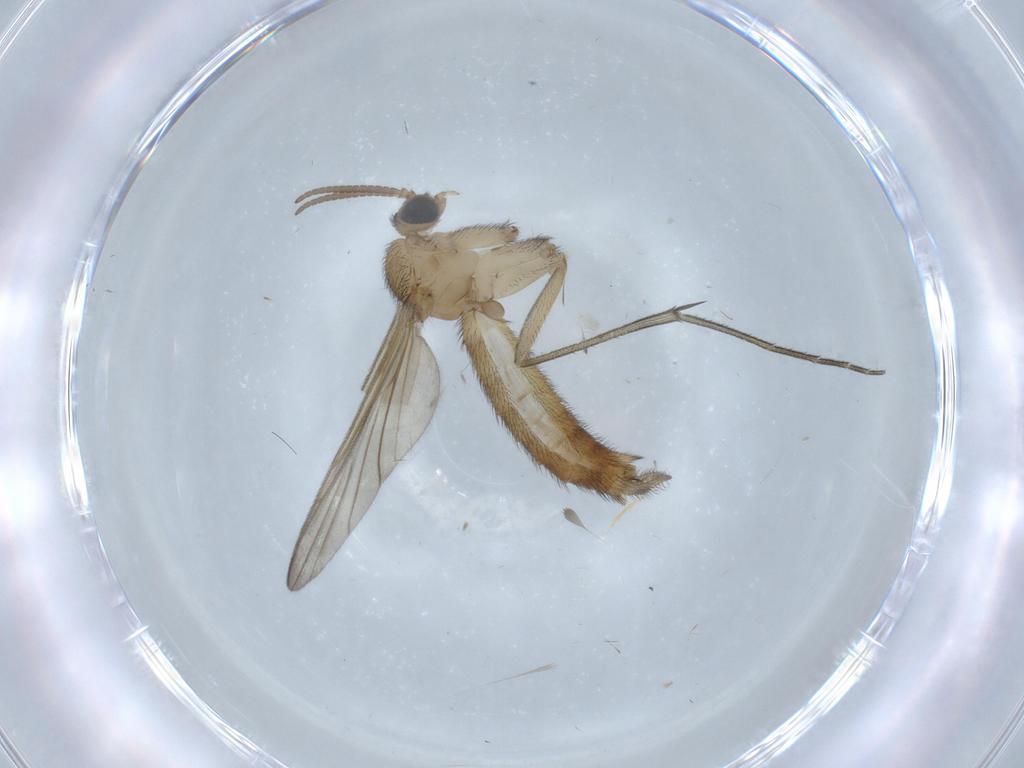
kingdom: Animalia
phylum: Arthropoda
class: Insecta
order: Diptera
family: Keroplatidae
